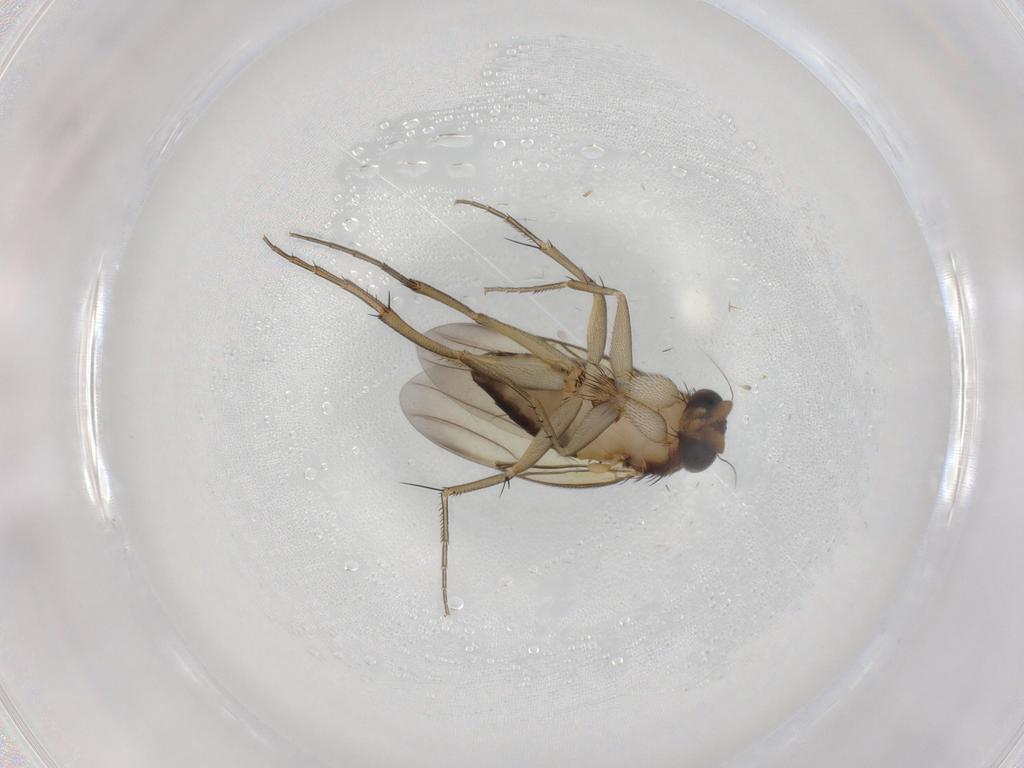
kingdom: Animalia
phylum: Arthropoda
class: Insecta
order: Diptera
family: Phoridae
